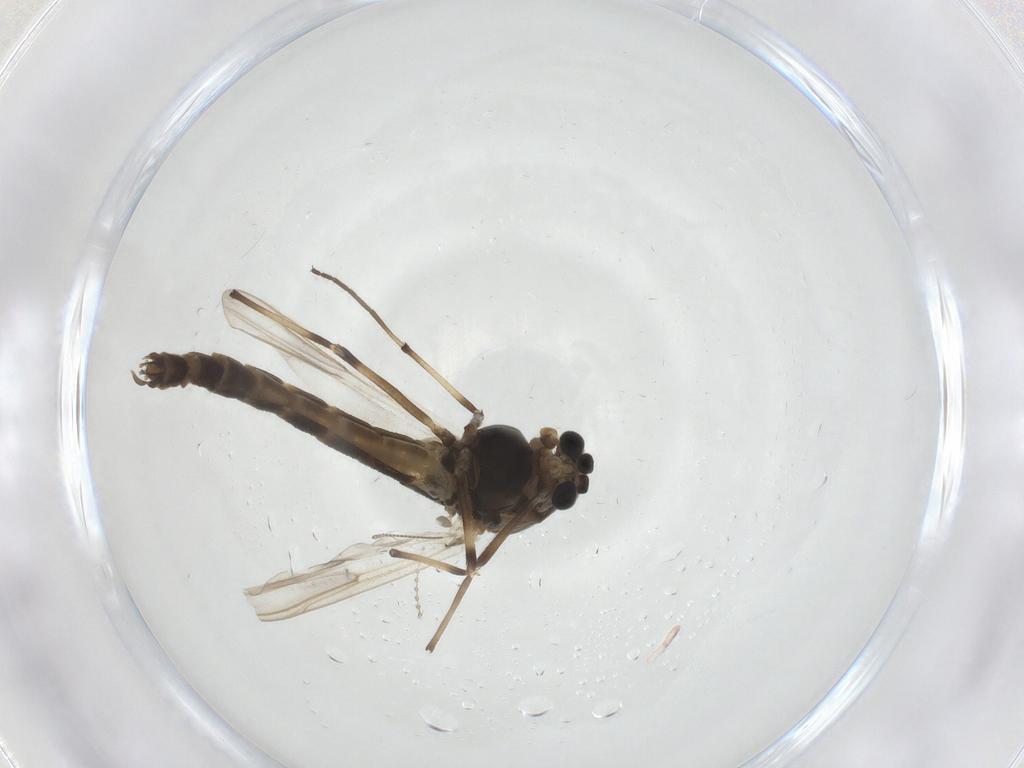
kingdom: Animalia
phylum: Arthropoda
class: Insecta
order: Diptera
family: Chironomidae
